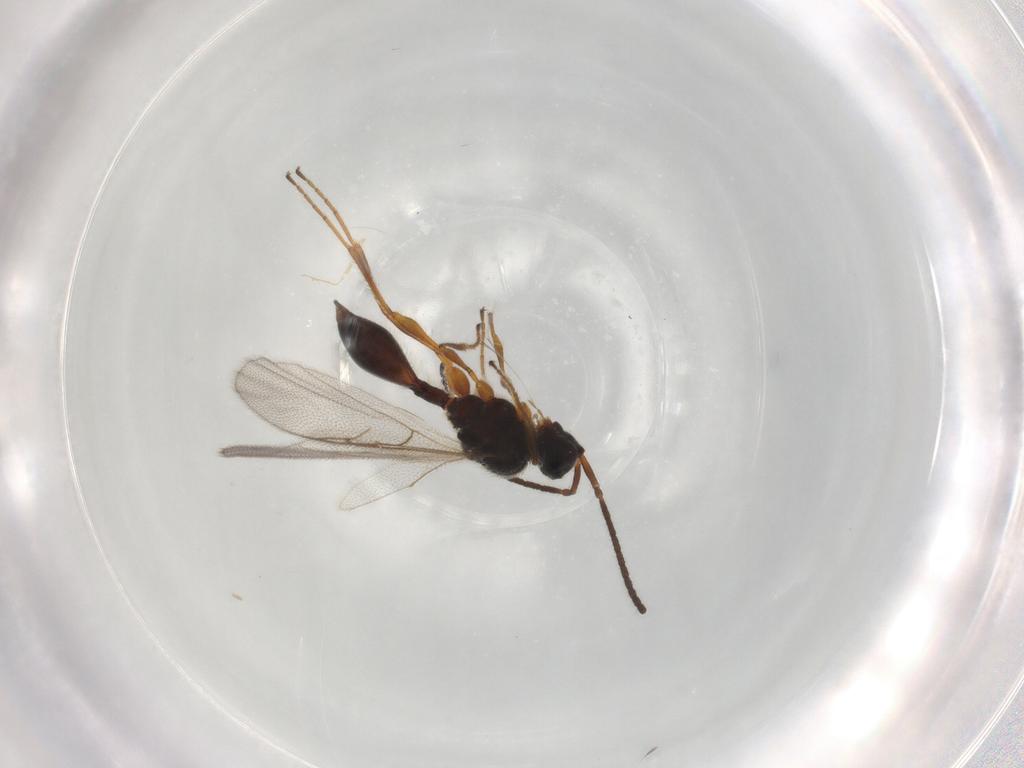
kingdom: Animalia
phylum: Arthropoda
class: Insecta
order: Hymenoptera
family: Diapriidae
